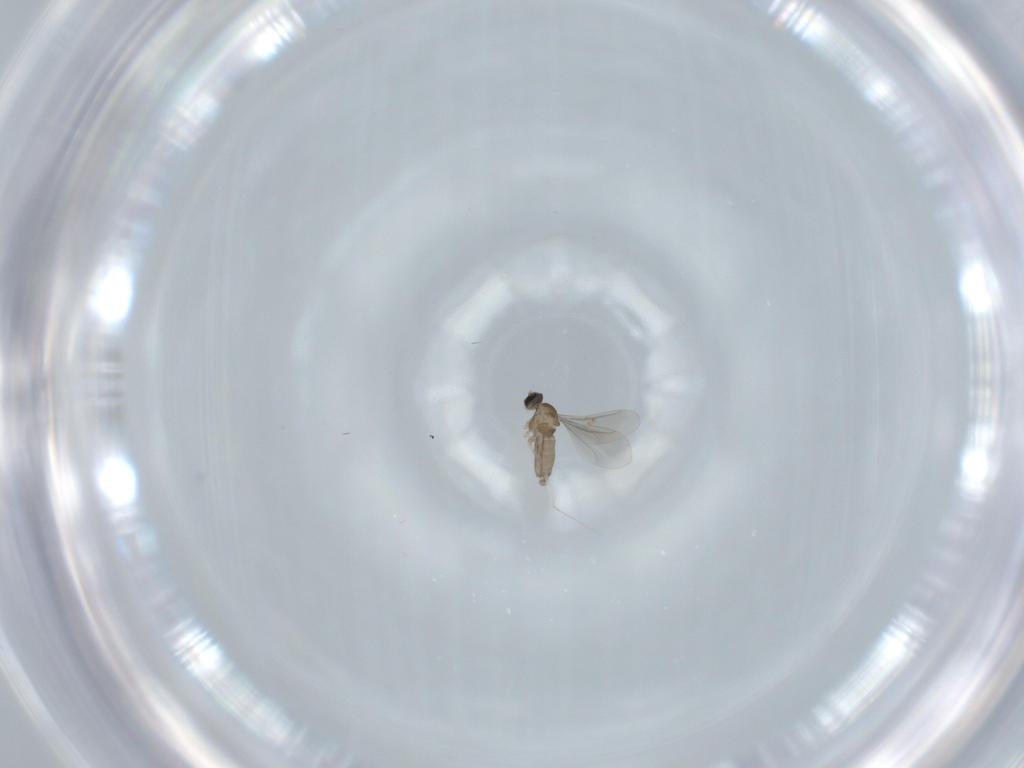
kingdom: Animalia
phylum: Arthropoda
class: Insecta
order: Diptera
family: Ceratopogonidae
